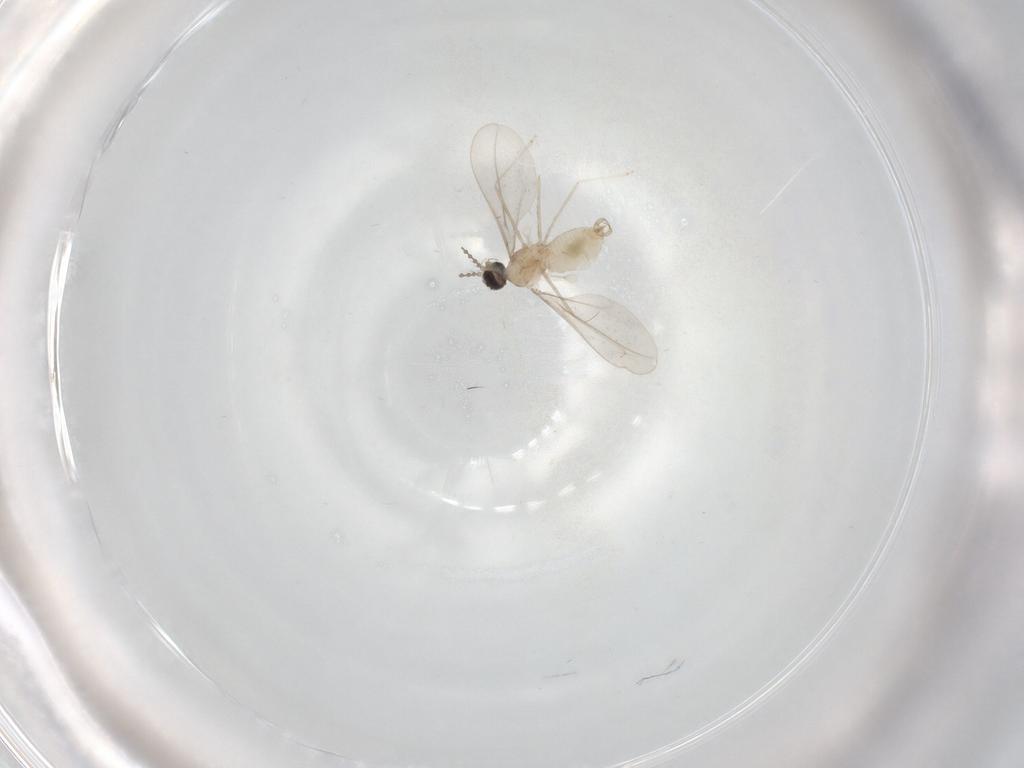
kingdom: Animalia
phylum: Arthropoda
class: Insecta
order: Diptera
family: Cecidomyiidae
